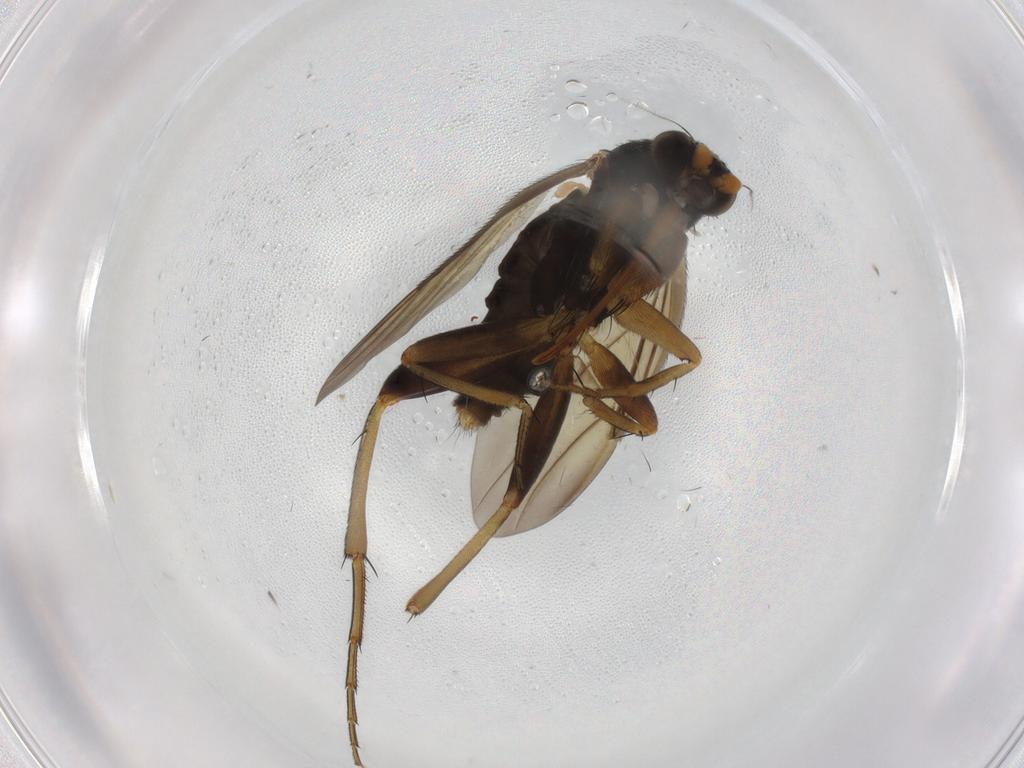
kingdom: Animalia
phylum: Arthropoda
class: Insecta
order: Diptera
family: Phoridae
